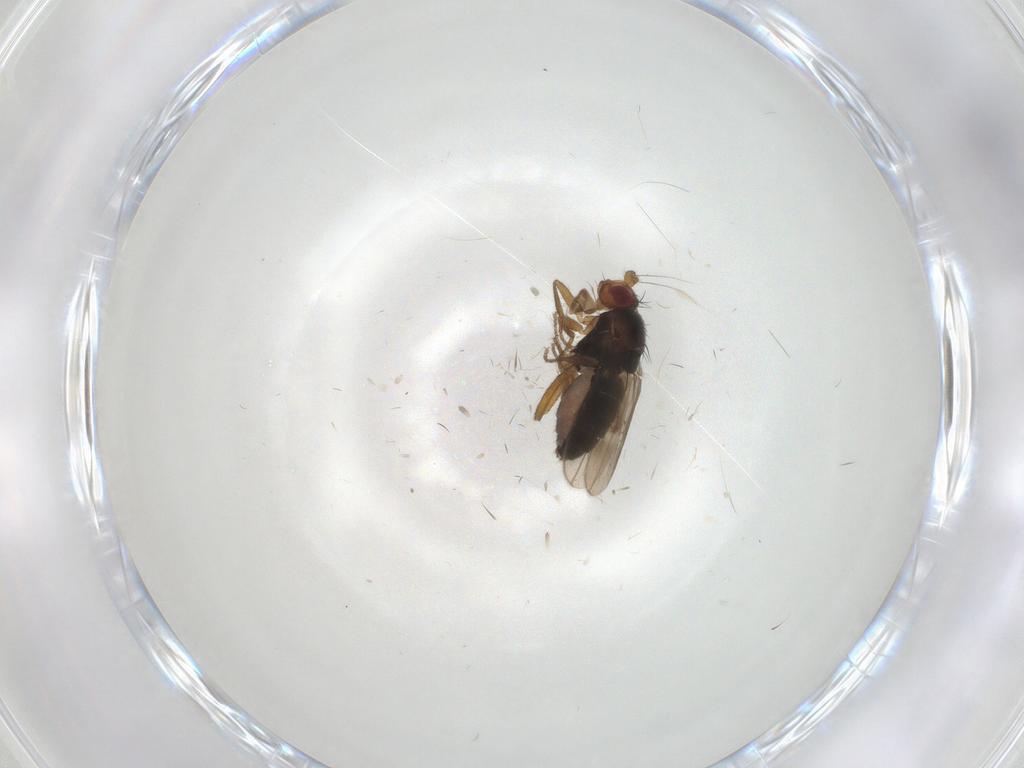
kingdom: Animalia
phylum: Arthropoda
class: Insecta
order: Diptera
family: Sphaeroceridae
